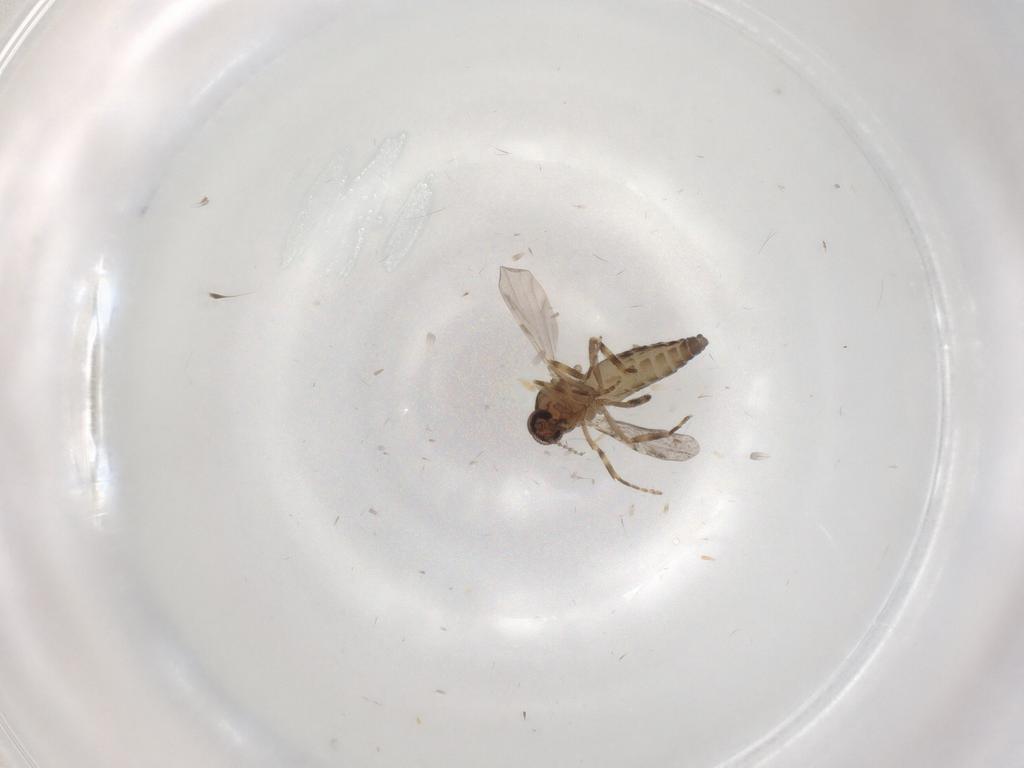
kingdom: Animalia
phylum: Arthropoda
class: Insecta
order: Diptera
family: Ceratopogonidae
